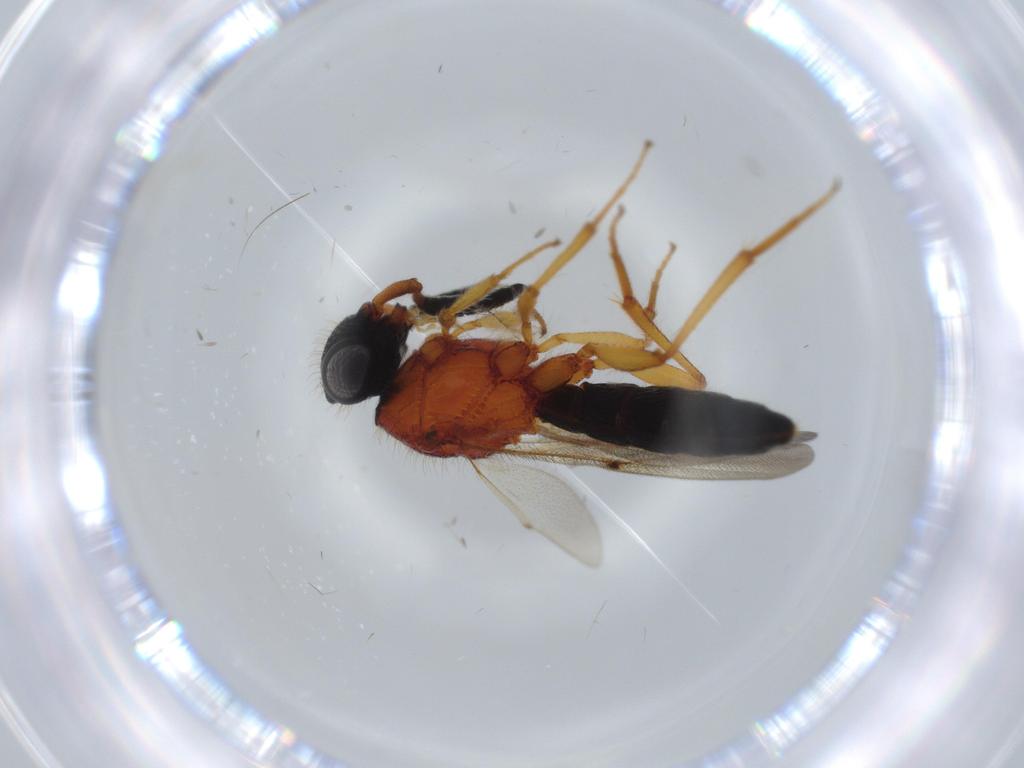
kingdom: Animalia
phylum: Arthropoda
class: Insecta
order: Hymenoptera
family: Scelionidae
